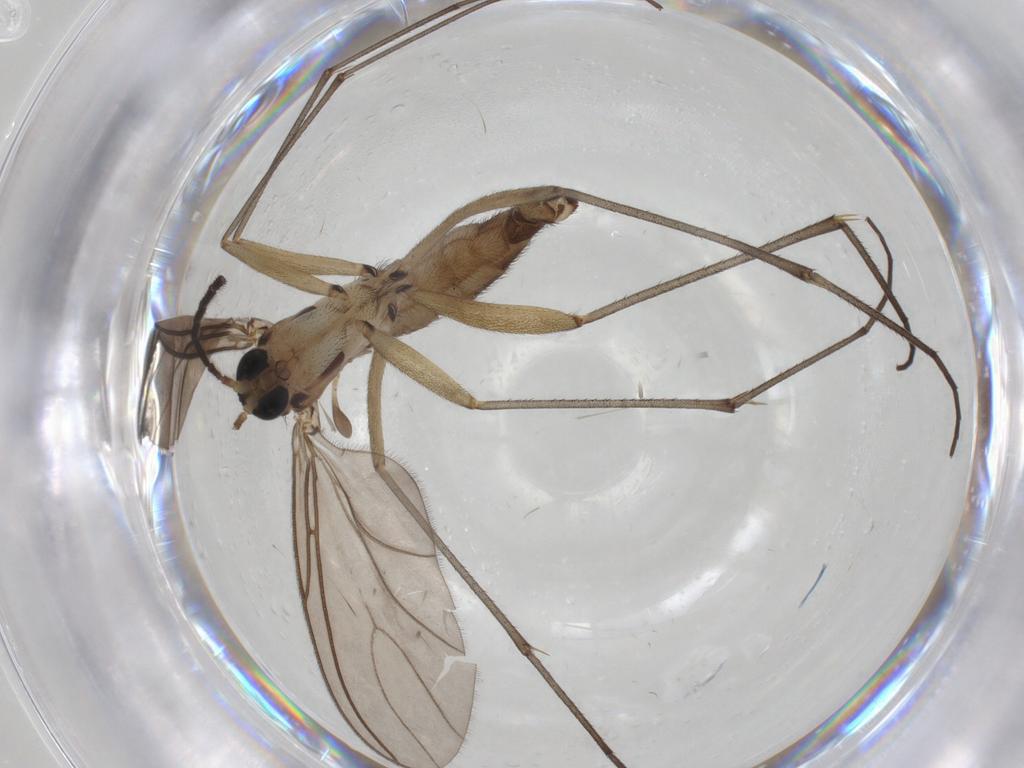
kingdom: Animalia
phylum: Arthropoda
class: Insecta
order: Diptera
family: Sciaridae
